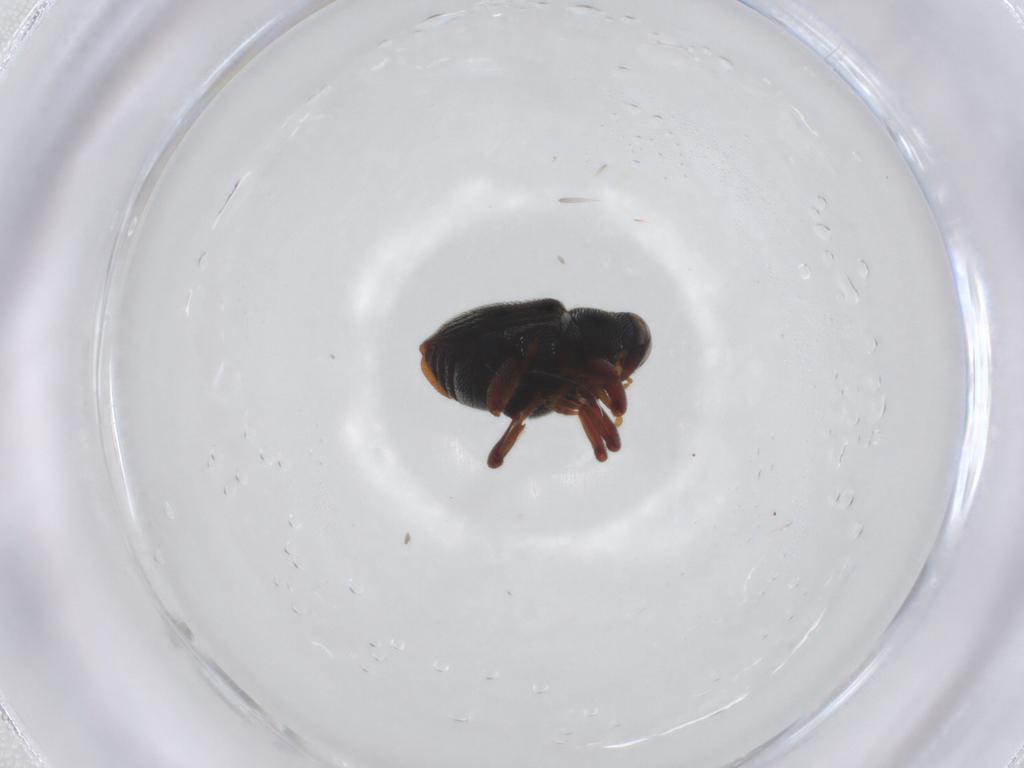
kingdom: Animalia
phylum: Arthropoda
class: Insecta
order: Coleoptera
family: Curculionidae
